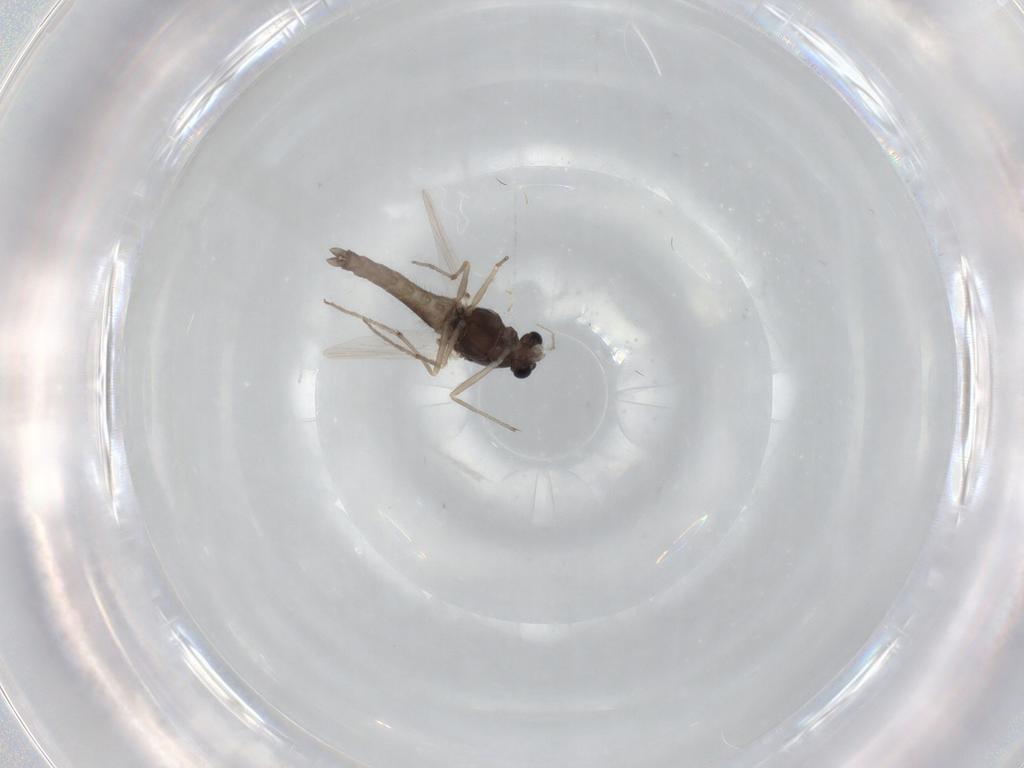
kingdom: Animalia
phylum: Arthropoda
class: Insecta
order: Diptera
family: Chironomidae
